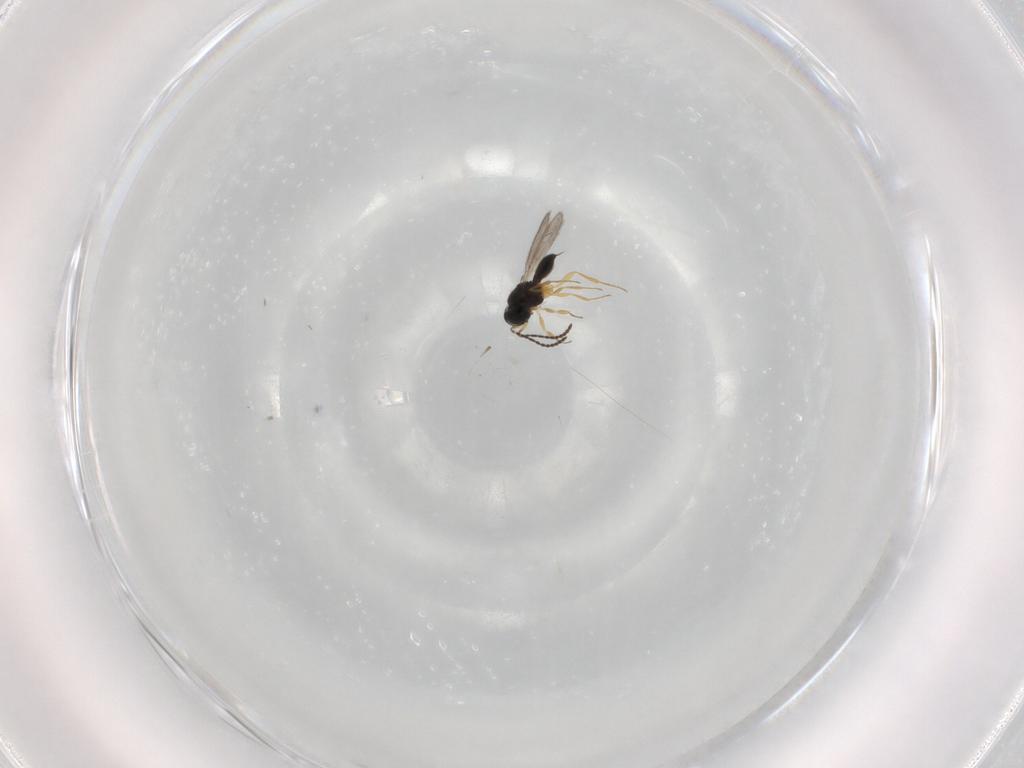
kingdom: Animalia
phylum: Arthropoda
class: Insecta
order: Hymenoptera
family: Scelionidae
